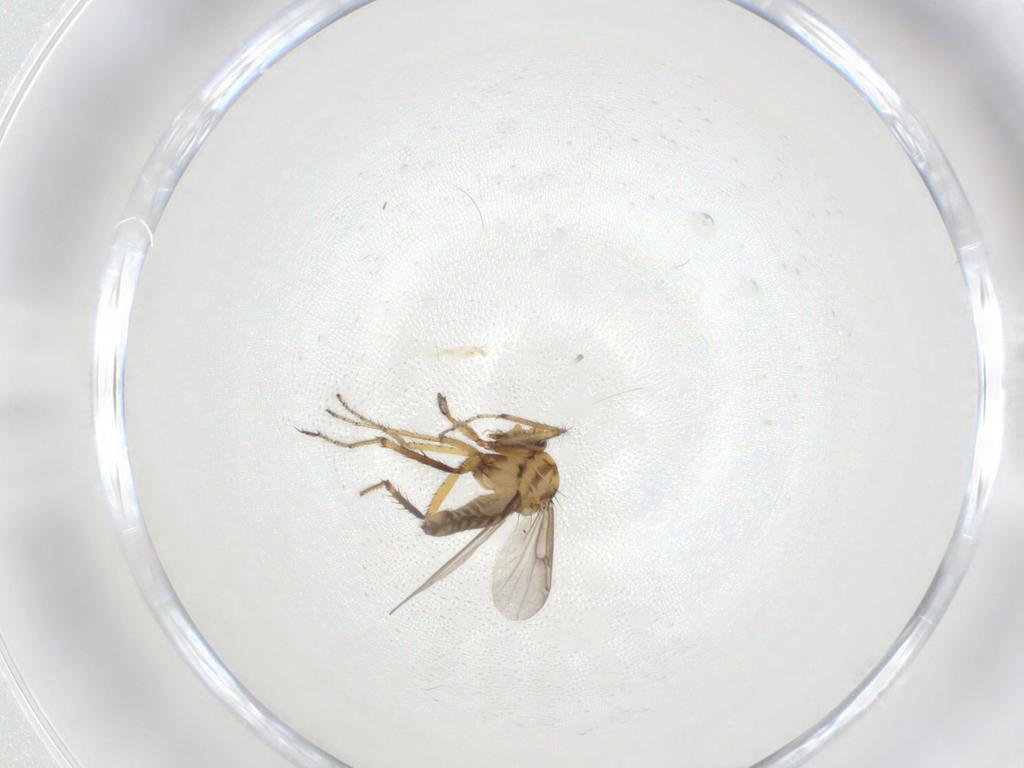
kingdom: Animalia
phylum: Arthropoda
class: Insecta
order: Diptera
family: Ceratopogonidae
